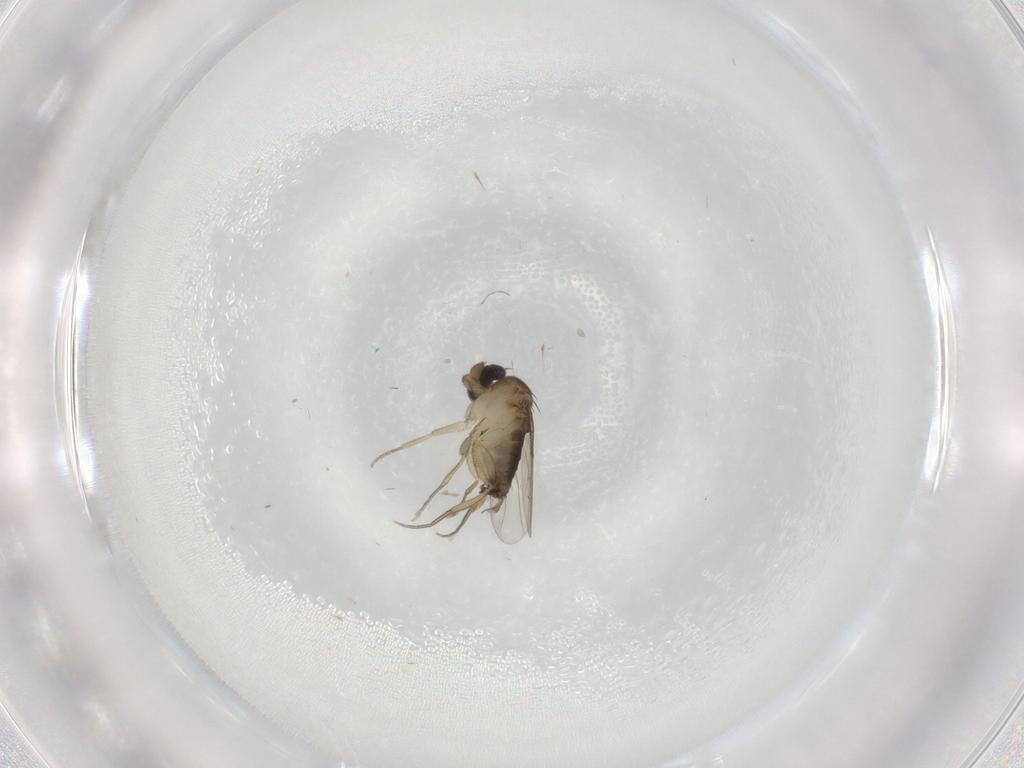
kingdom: Animalia
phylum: Arthropoda
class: Insecta
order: Diptera
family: Phoridae
